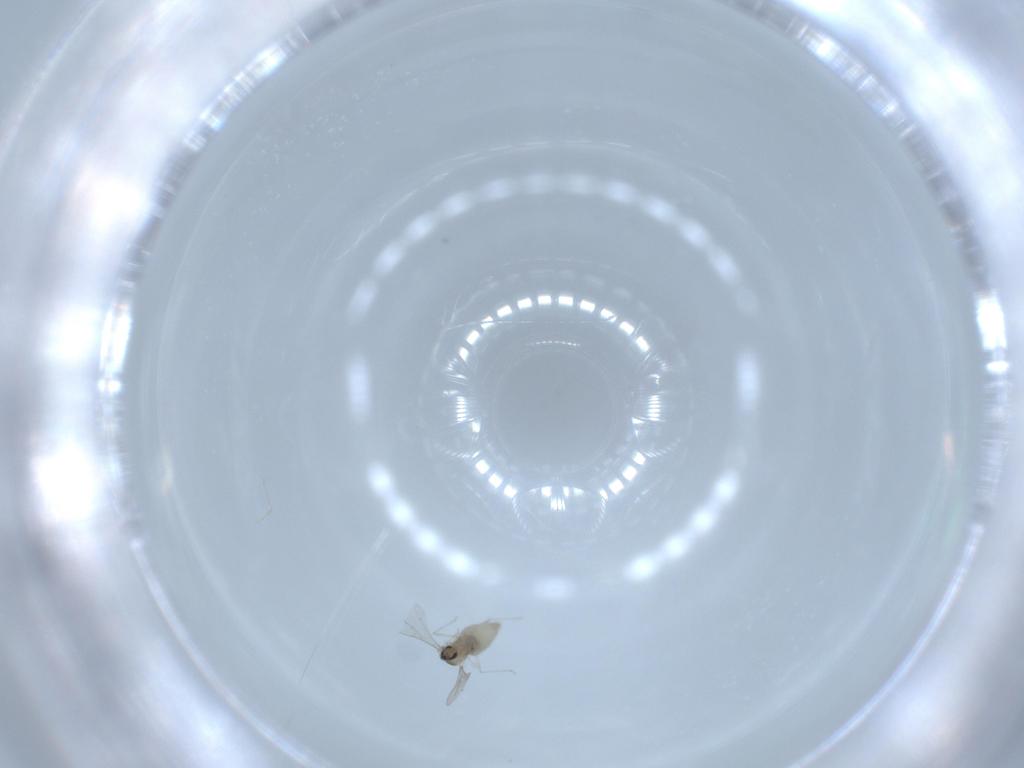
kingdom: Animalia
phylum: Arthropoda
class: Insecta
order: Diptera
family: Cecidomyiidae
